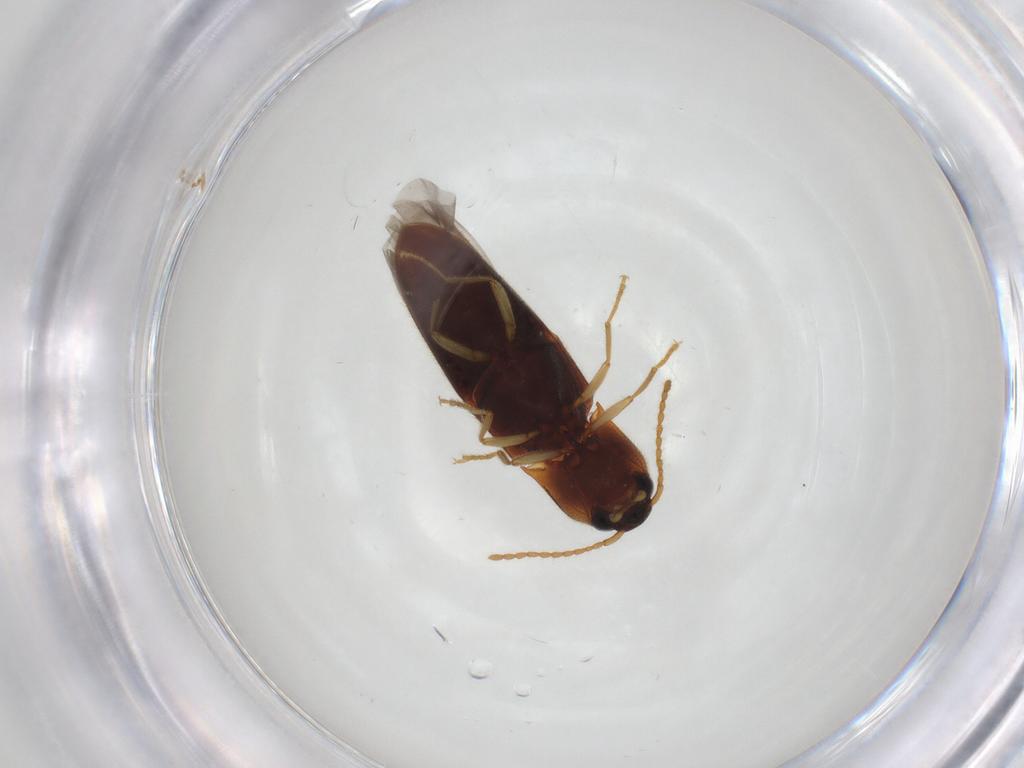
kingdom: Animalia
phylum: Arthropoda
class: Insecta
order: Coleoptera
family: Elateridae
